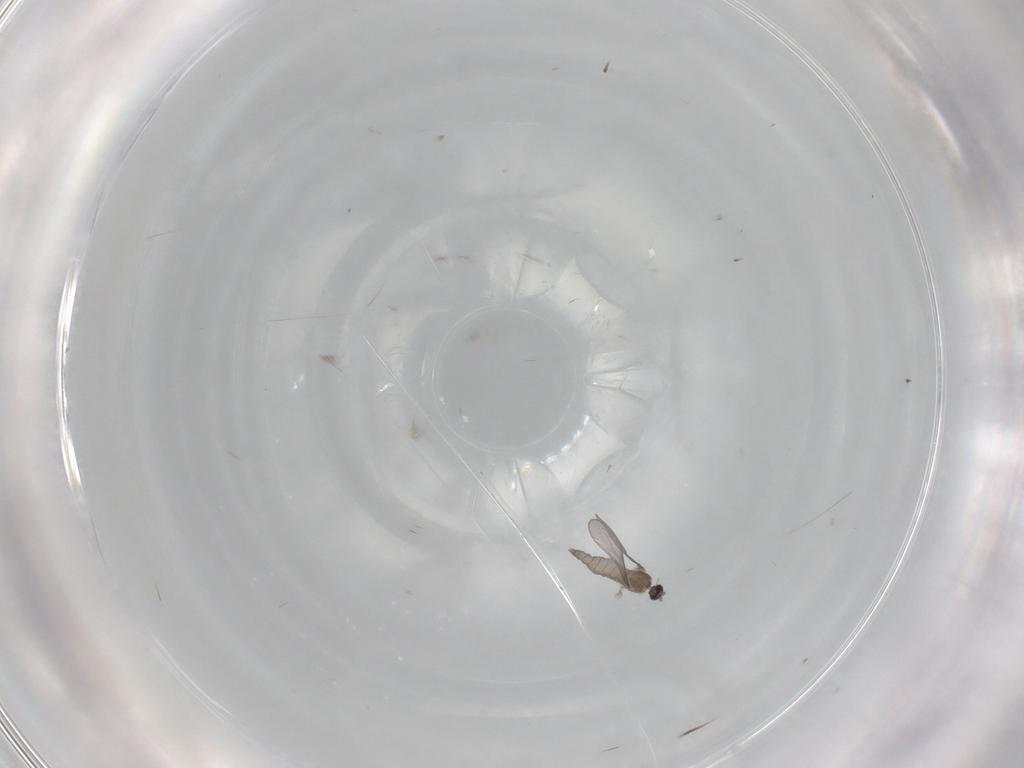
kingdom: Animalia
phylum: Arthropoda
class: Insecta
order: Diptera
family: Cecidomyiidae
